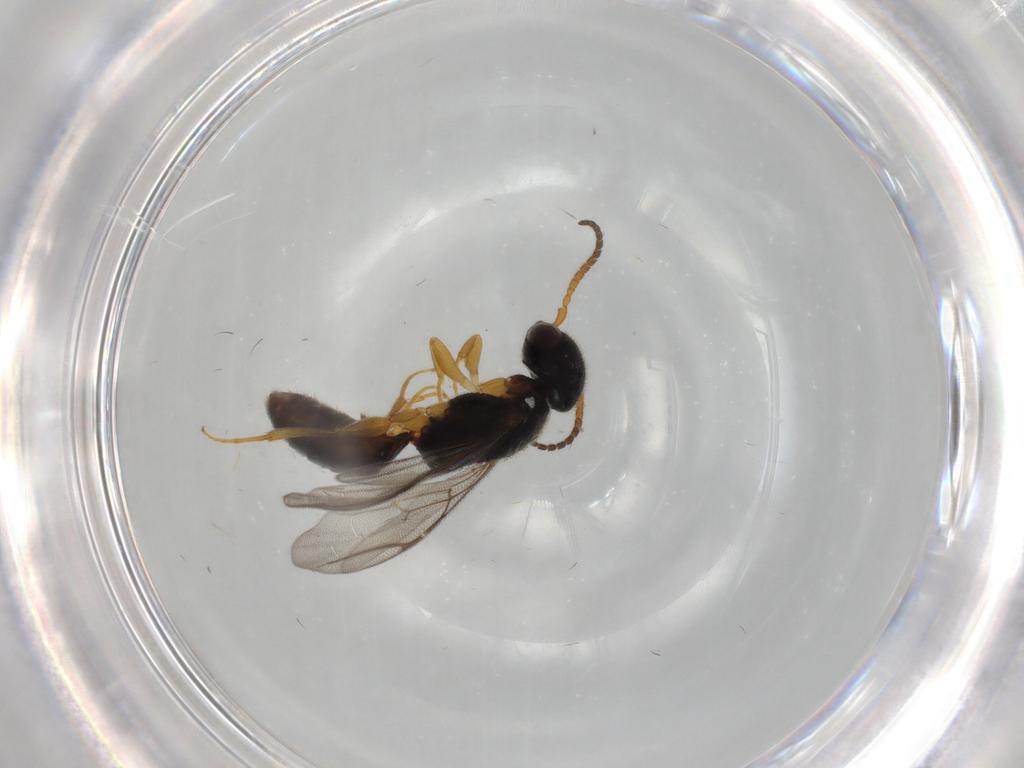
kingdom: Animalia
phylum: Arthropoda
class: Insecta
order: Hymenoptera
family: Bethylidae
